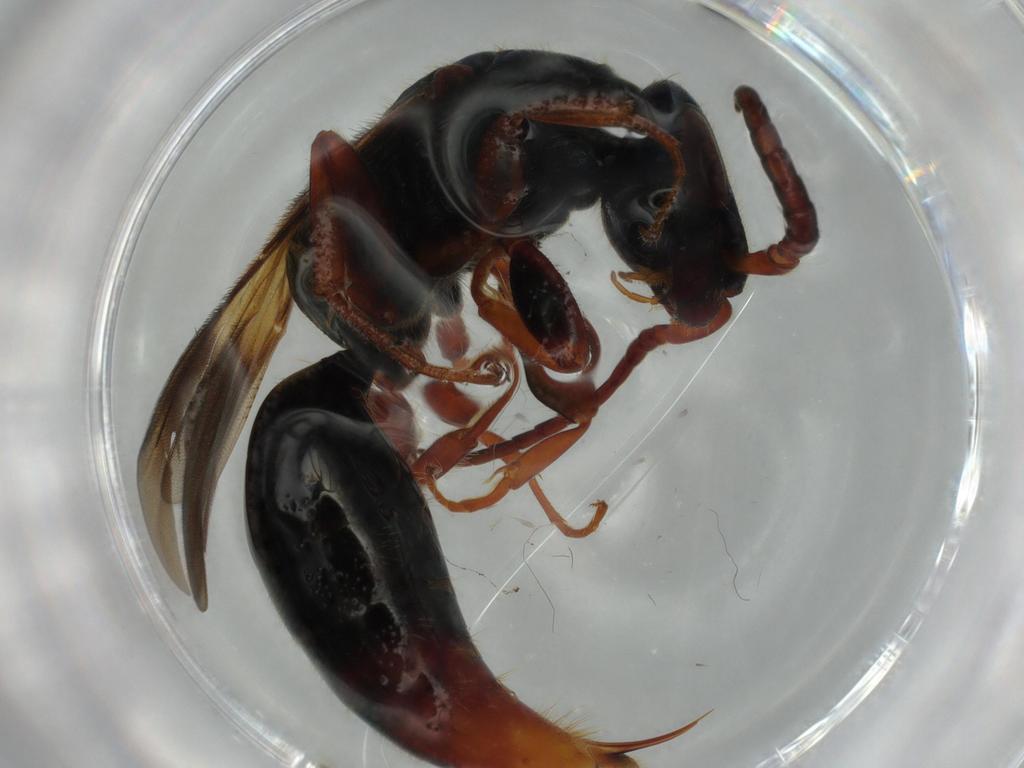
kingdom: Animalia
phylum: Arthropoda
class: Insecta
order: Hymenoptera
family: Bethylidae
